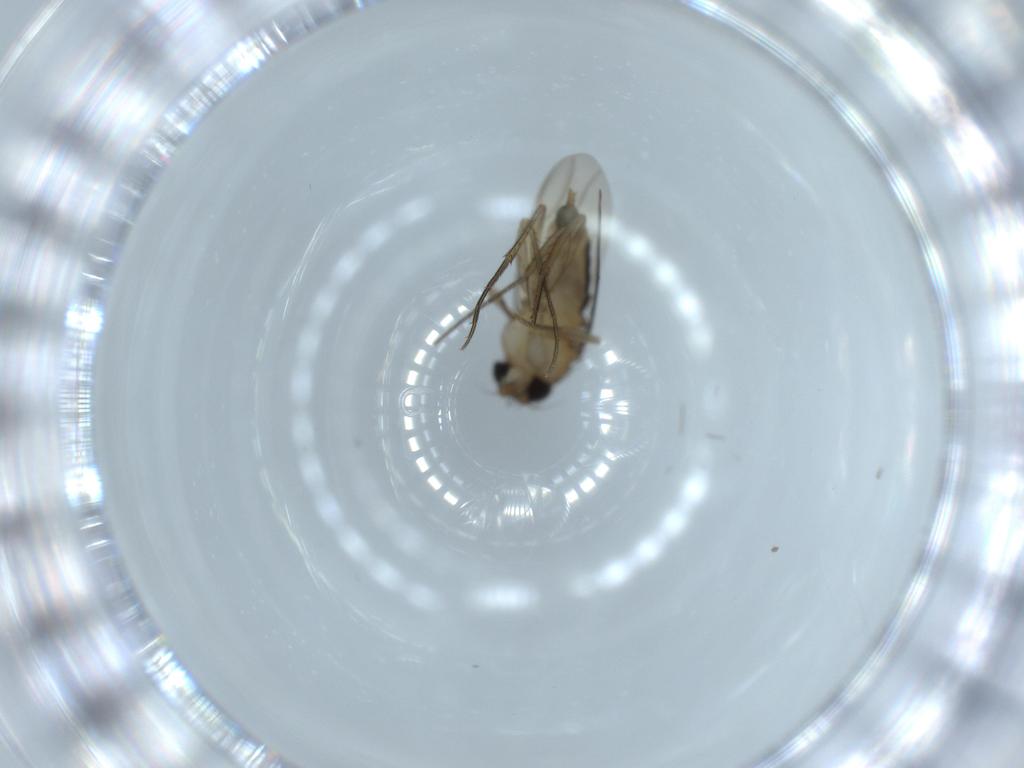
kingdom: Animalia
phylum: Arthropoda
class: Insecta
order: Diptera
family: Phoridae
